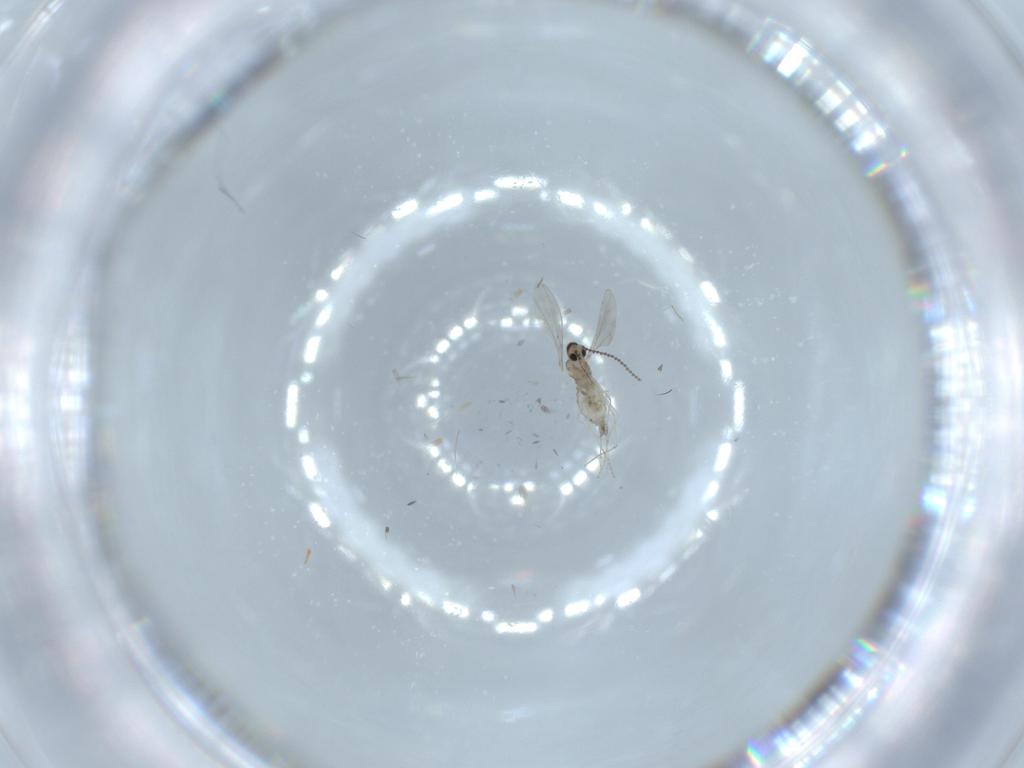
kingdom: Animalia
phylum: Arthropoda
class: Insecta
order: Diptera
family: Cecidomyiidae
